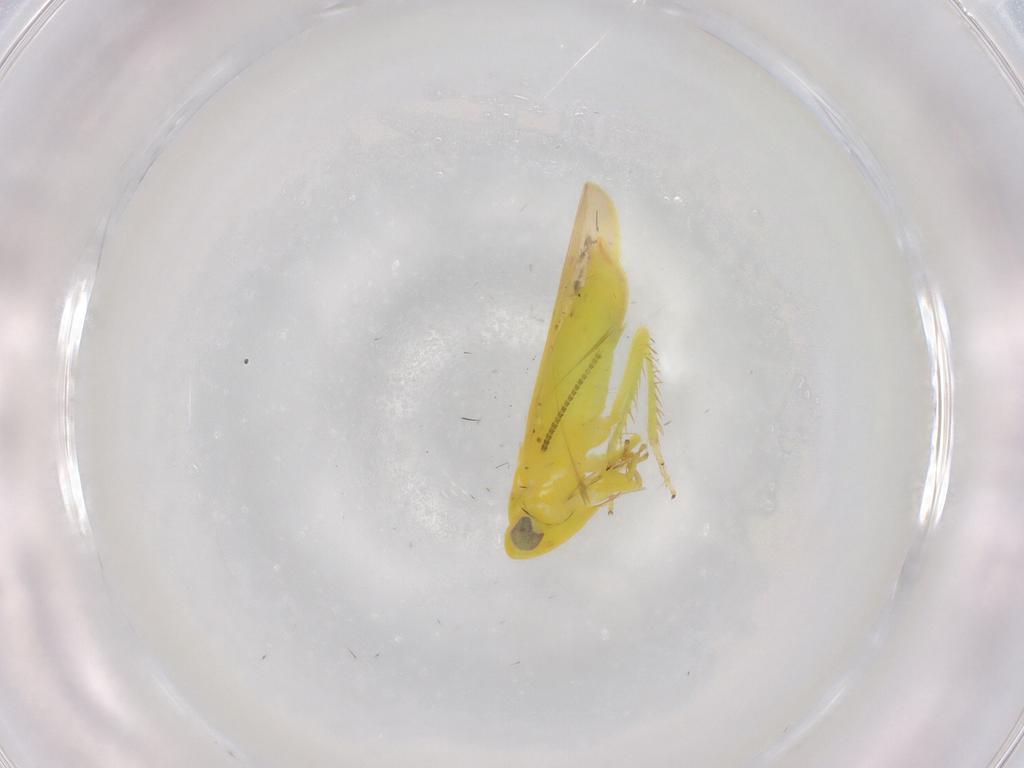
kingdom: Animalia
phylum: Arthropoda
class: Insecta
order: Hemiptera
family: Cicadellidae
